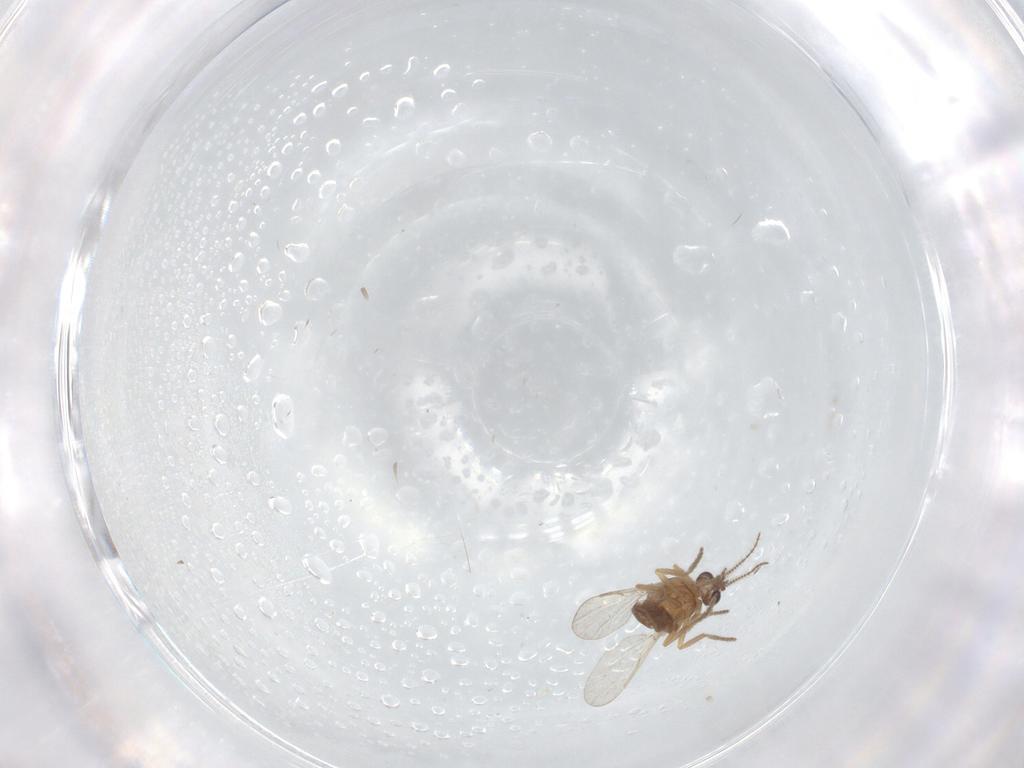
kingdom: Animalia
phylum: Arthropoda
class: Insecta
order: Diptera
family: Ceratopogonidae
